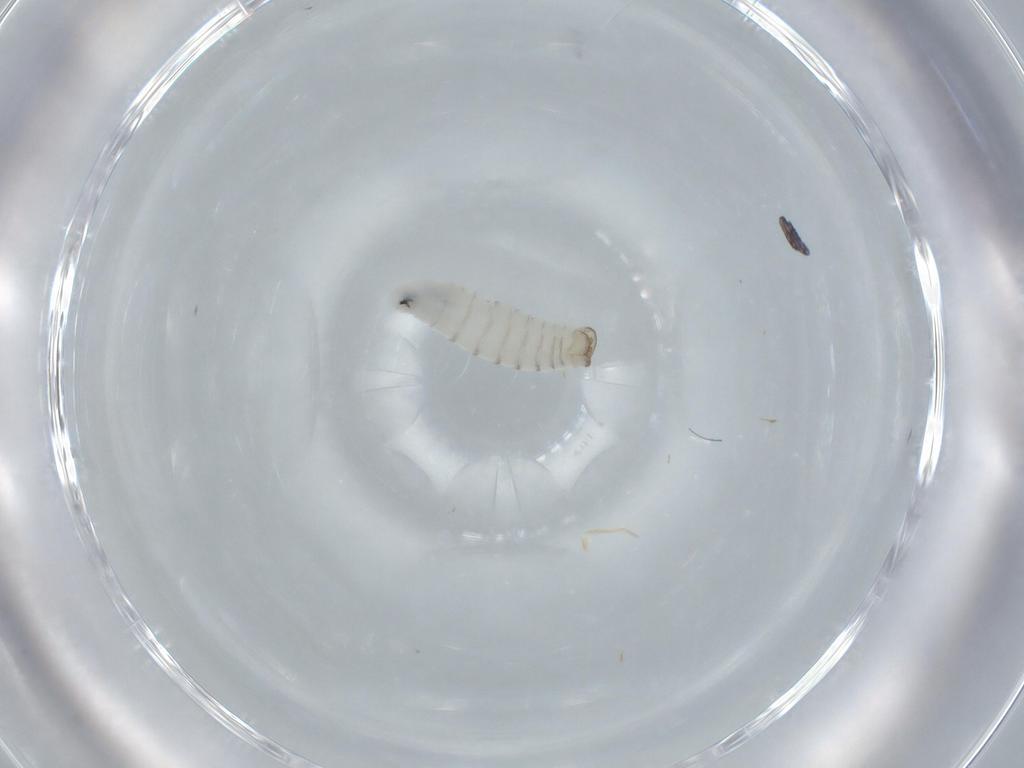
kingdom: Animalia
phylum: Arthropoda
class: Insecta
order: Diptera
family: Sarcophagidae
